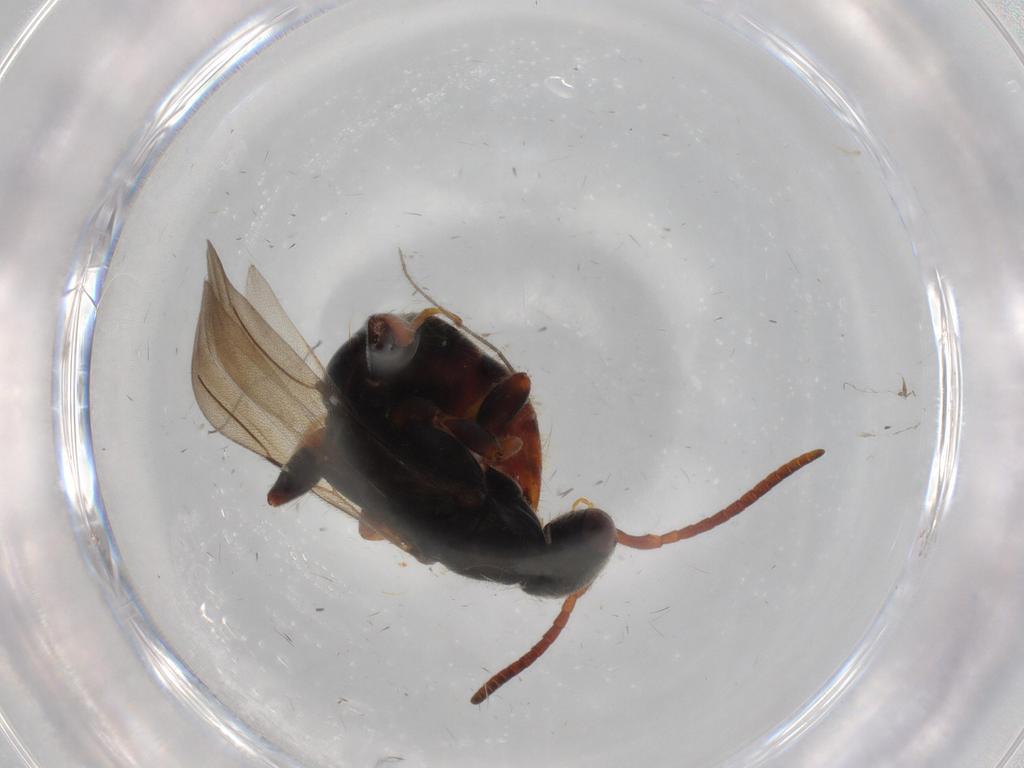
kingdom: Animalia
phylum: Arthropoda
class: Insecta
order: Hymenoptera
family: Bethylidae
